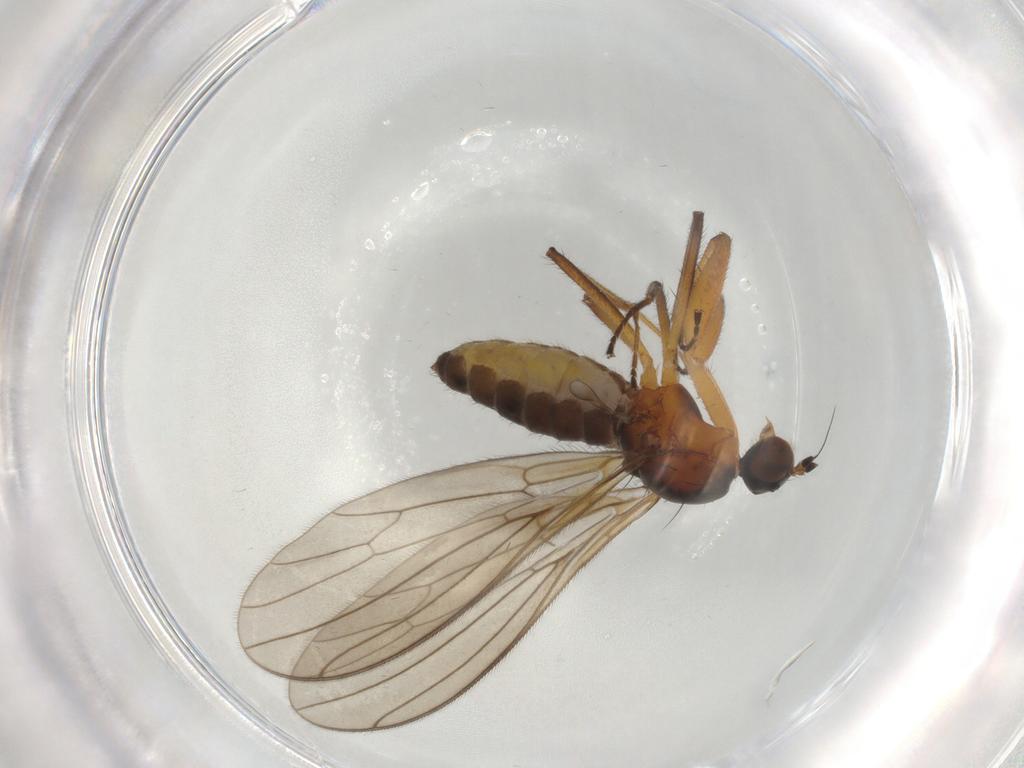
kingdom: Animalia
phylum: Arthropoda
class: Insecta
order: Diptera
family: Empididae
